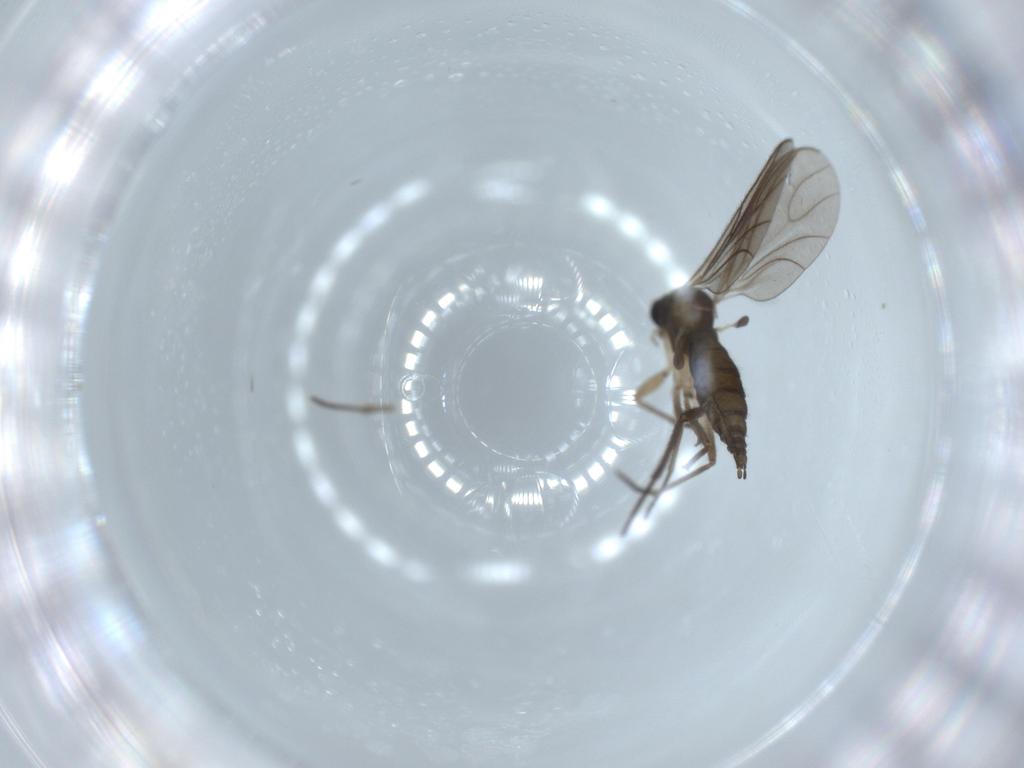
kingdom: Animalia
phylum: Arthropoda
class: Insecta
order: Diptera
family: Sciaridae
